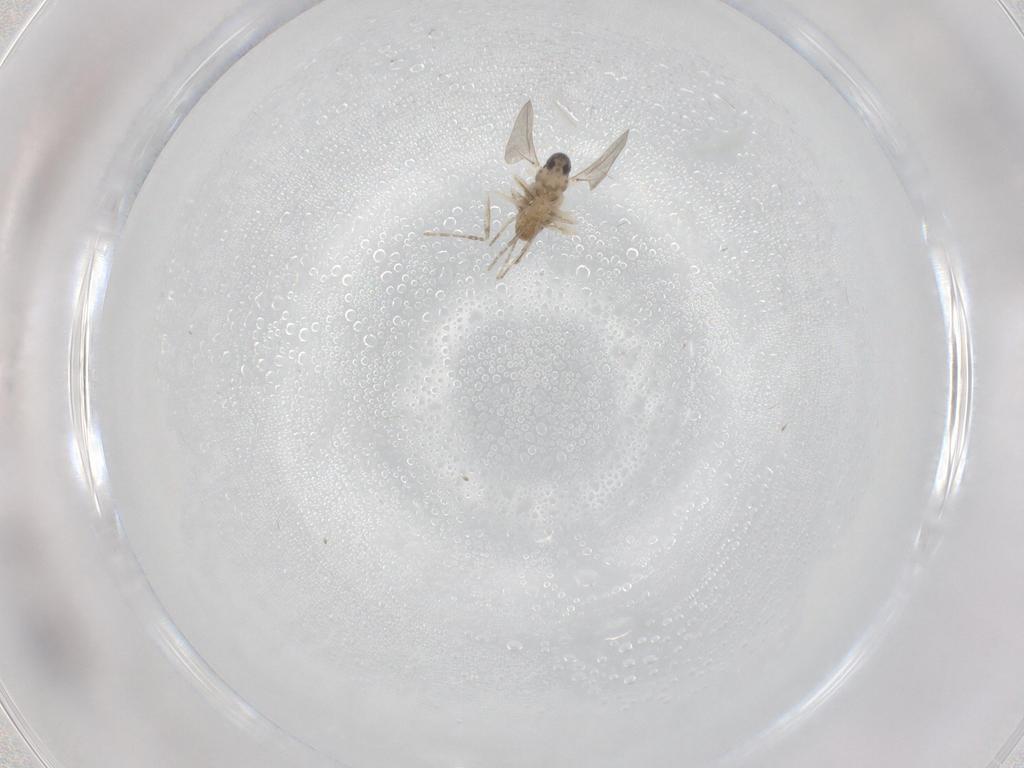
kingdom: Animalia
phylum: Arthropoda
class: Insecta
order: Diptera
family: Cecidomyiidae
